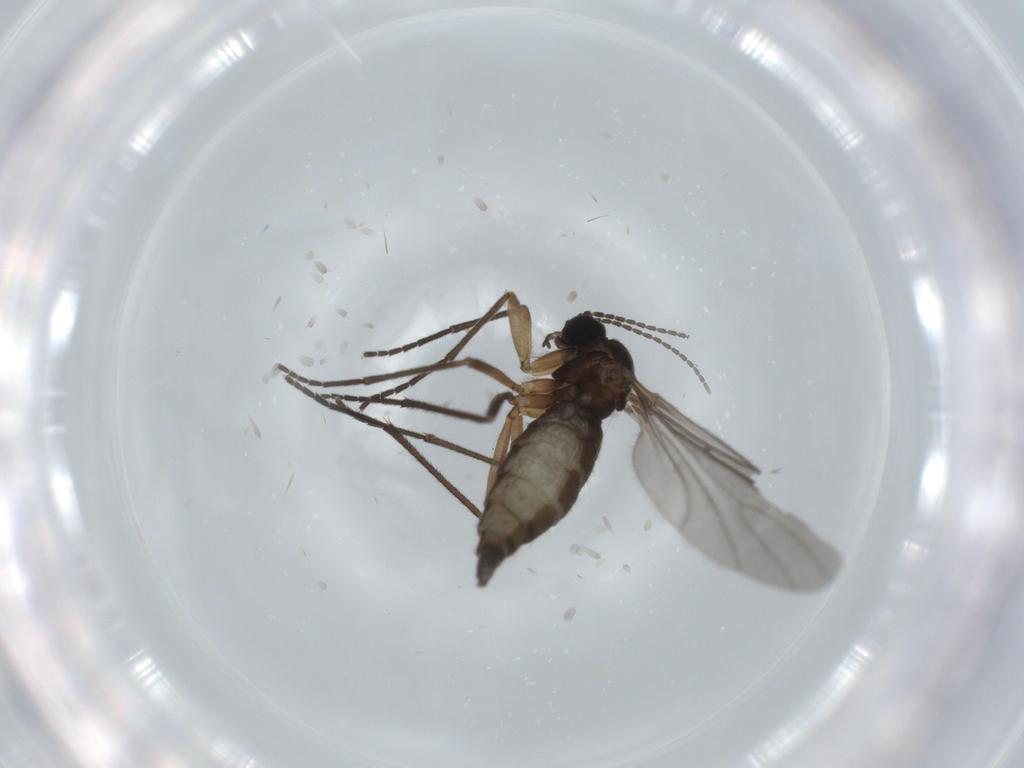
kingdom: Animalia
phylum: Arthropoda
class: Insecta
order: Diptera
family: Sciaridae
